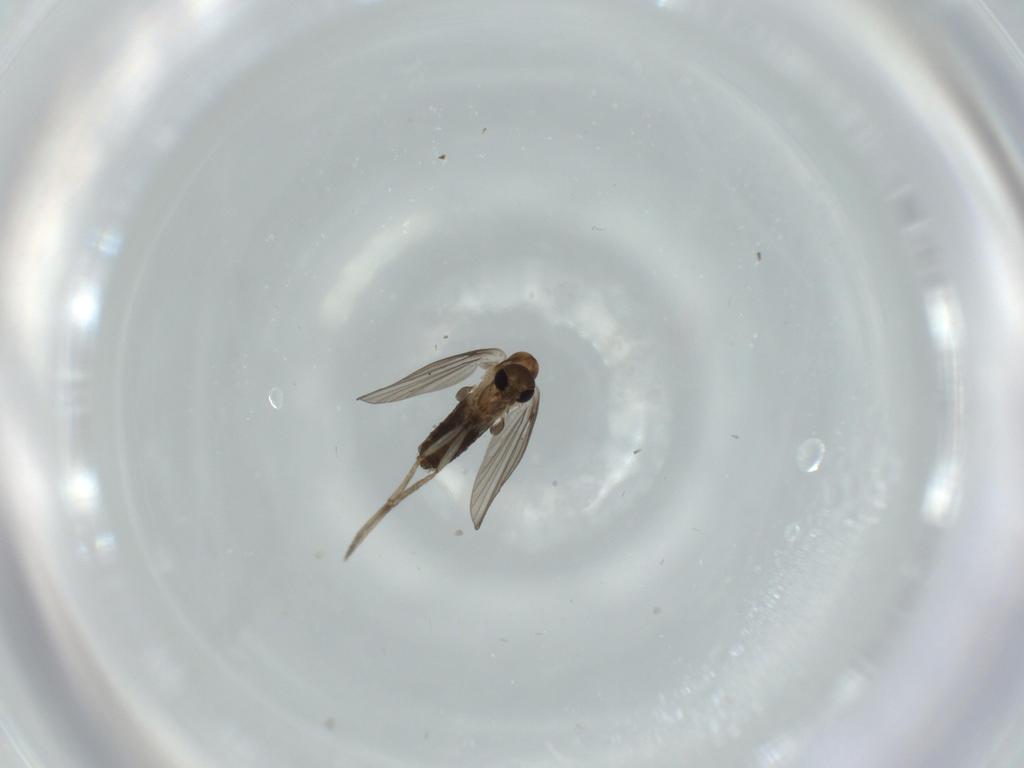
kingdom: Animalia
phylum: Arthropoda
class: Insecta
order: Diptera
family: Psychodidae
